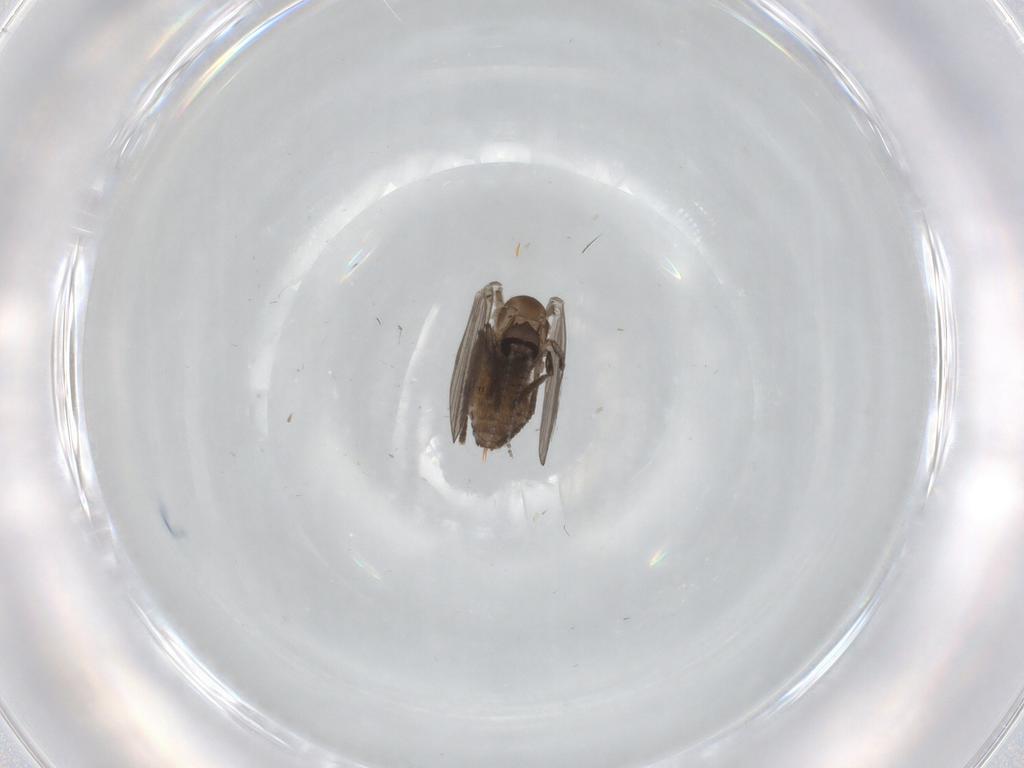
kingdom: Animalia
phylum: Arthropoda
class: Insecta
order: Diptera
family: Psychodidae
